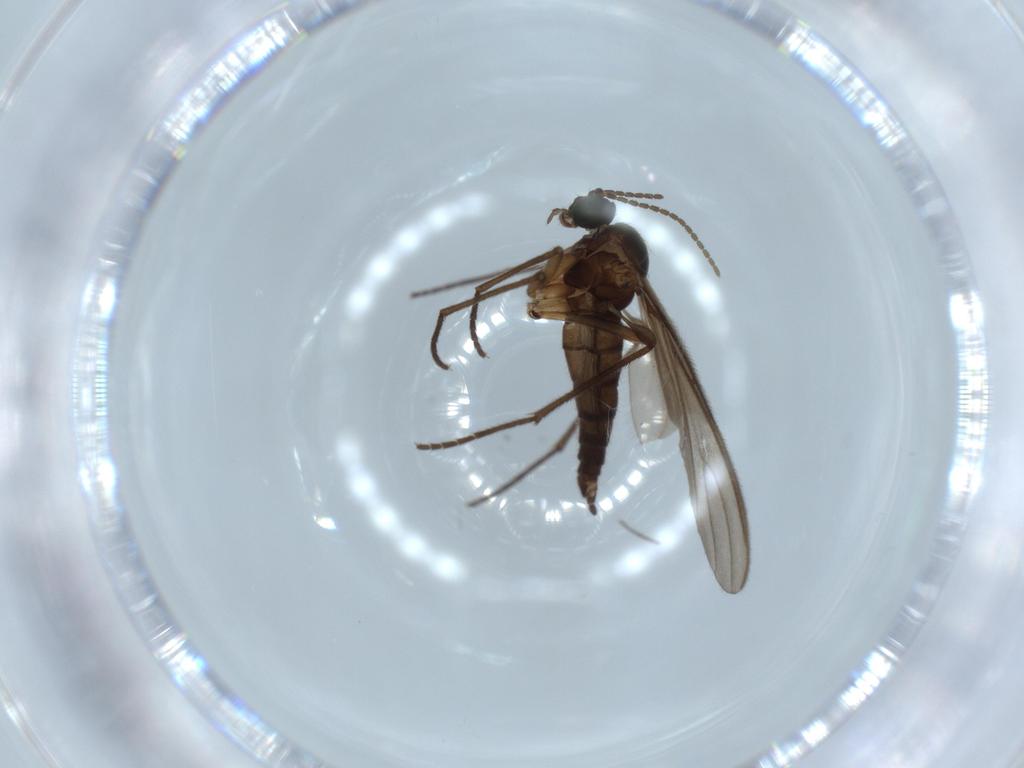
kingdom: Animalia
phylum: Arthropoda
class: Insecta
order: Diptera
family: Sciaridae
